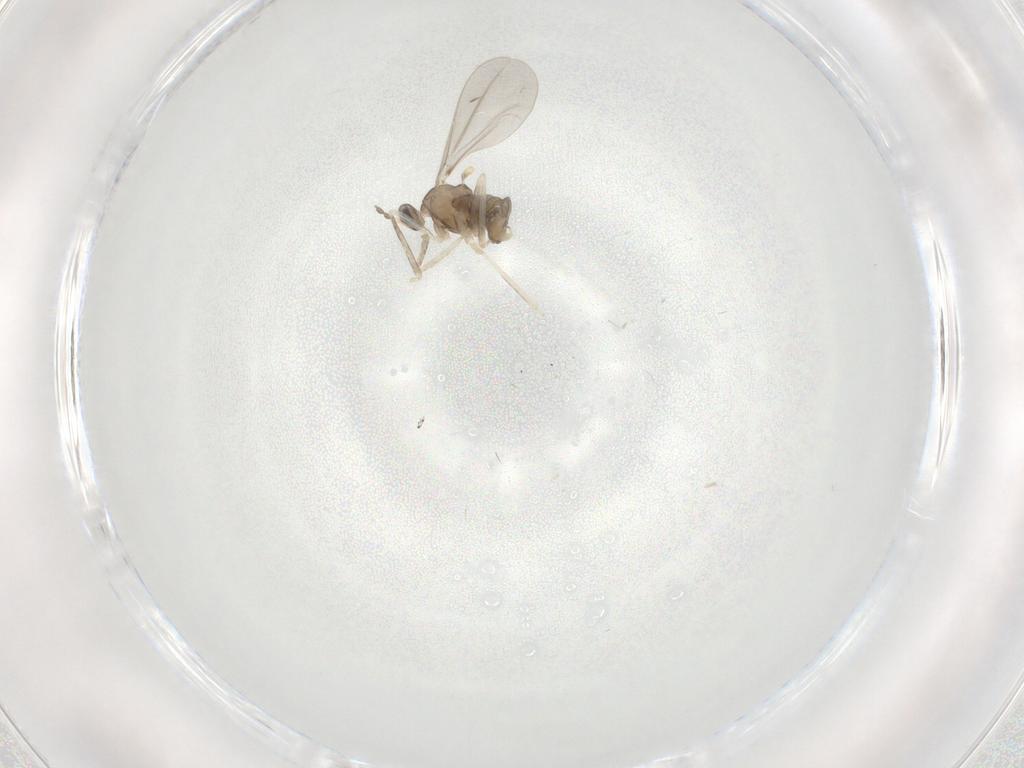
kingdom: Animalia
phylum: Arthropoda
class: Insecta
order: Diptera
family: Cecidomyiidae
